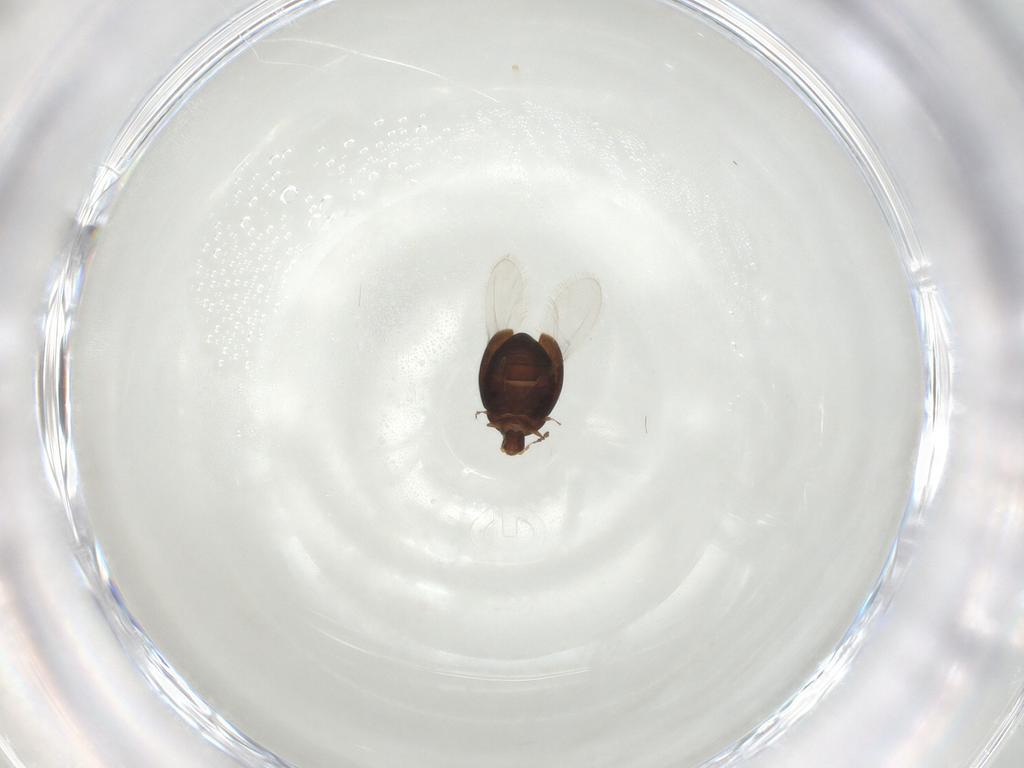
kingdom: Animalia
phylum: Arthropoda
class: Insecta
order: Coleoptera
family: Corylophidae
